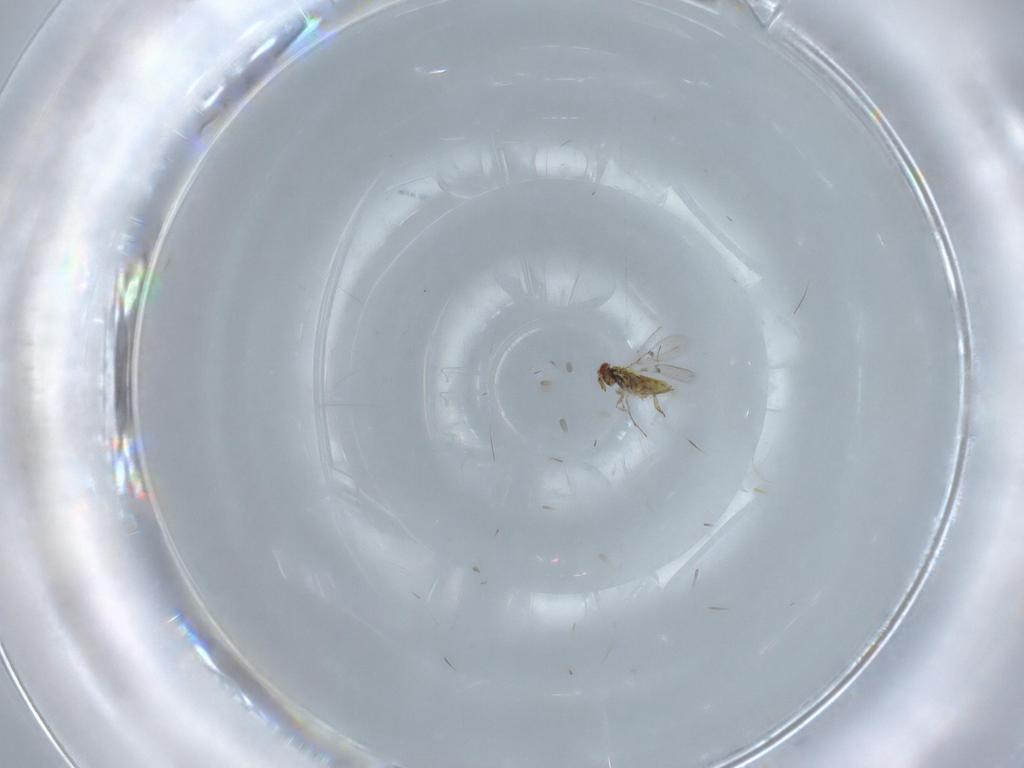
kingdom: Animalia
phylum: Arthropoda
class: Insecta
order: Hymenoptera
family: Trichogrammatidae
